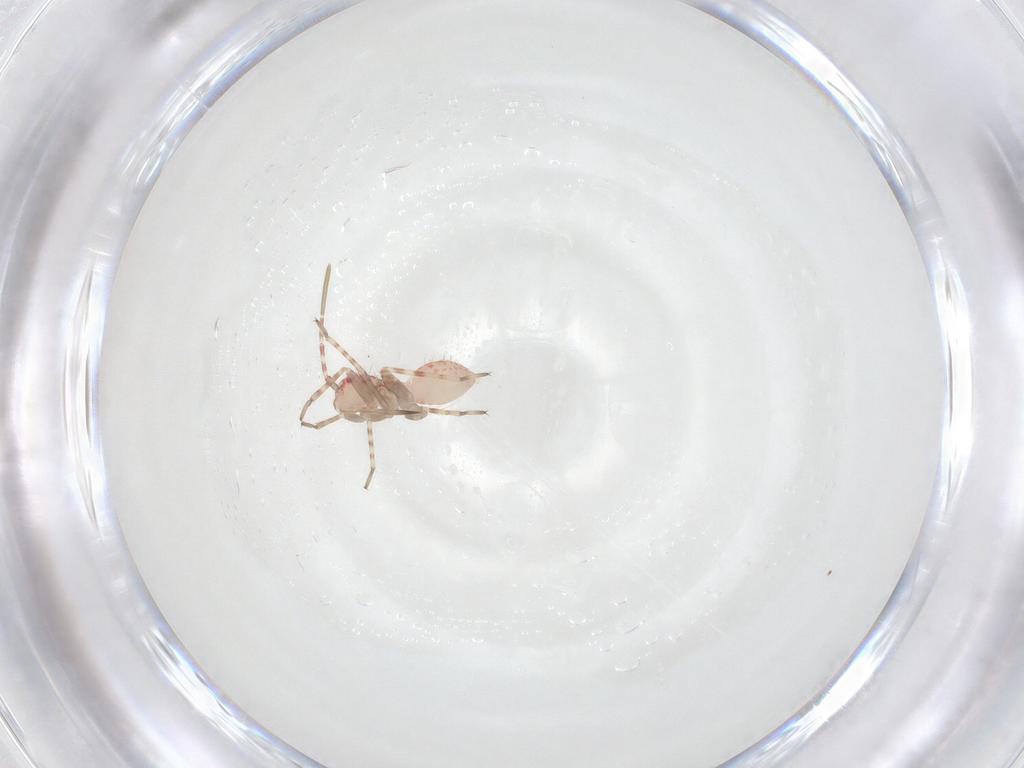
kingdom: Animalia
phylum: Arthropoda
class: Insecta
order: Hemiptera
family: Miridae
